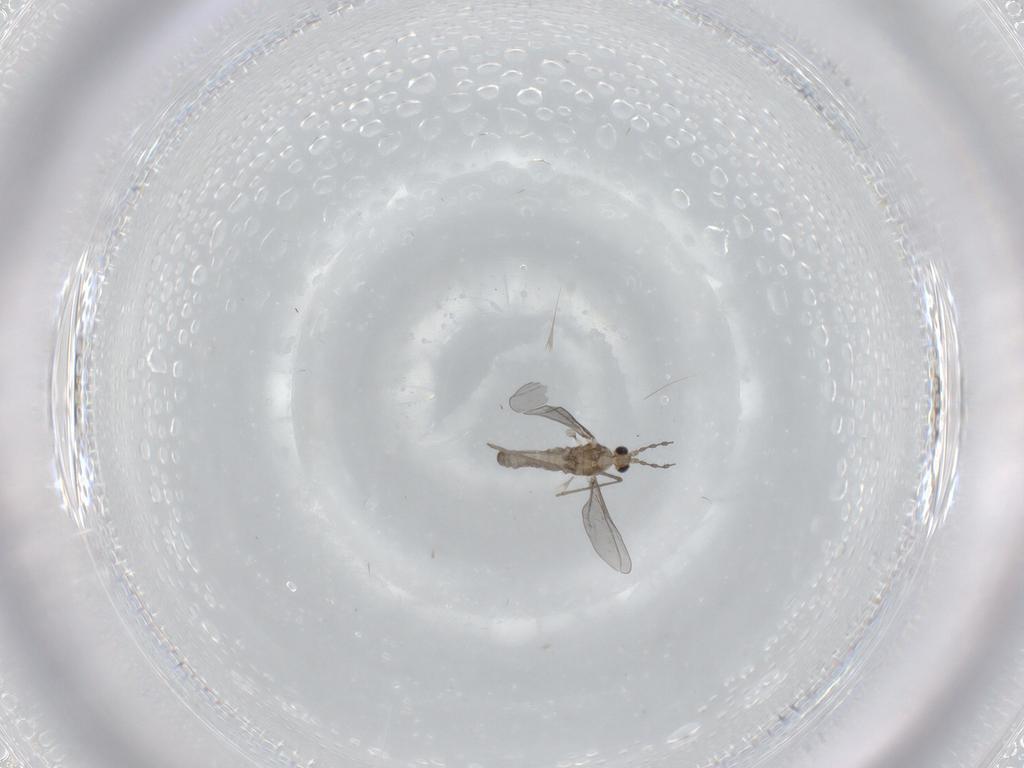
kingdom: Animalia
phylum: Arthropoda
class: Insecta
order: Diptera
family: Cecidomyiidae
